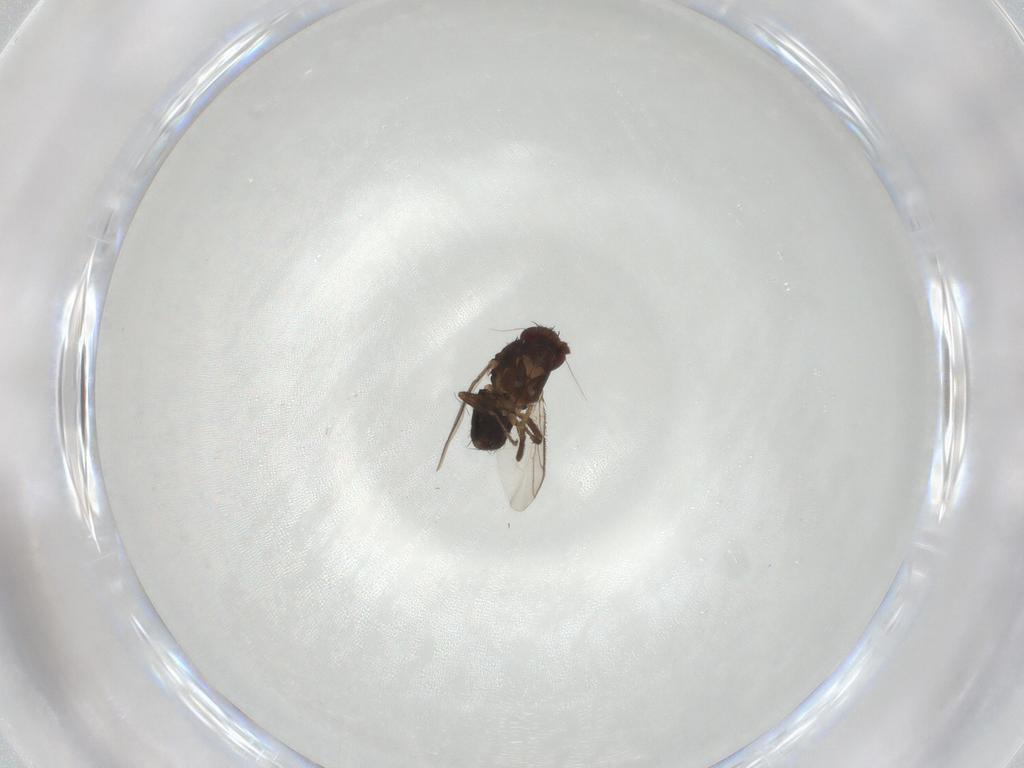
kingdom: Animalia
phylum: Arthropoda
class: Insecta
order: Diptera
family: Sphaeroceridae
